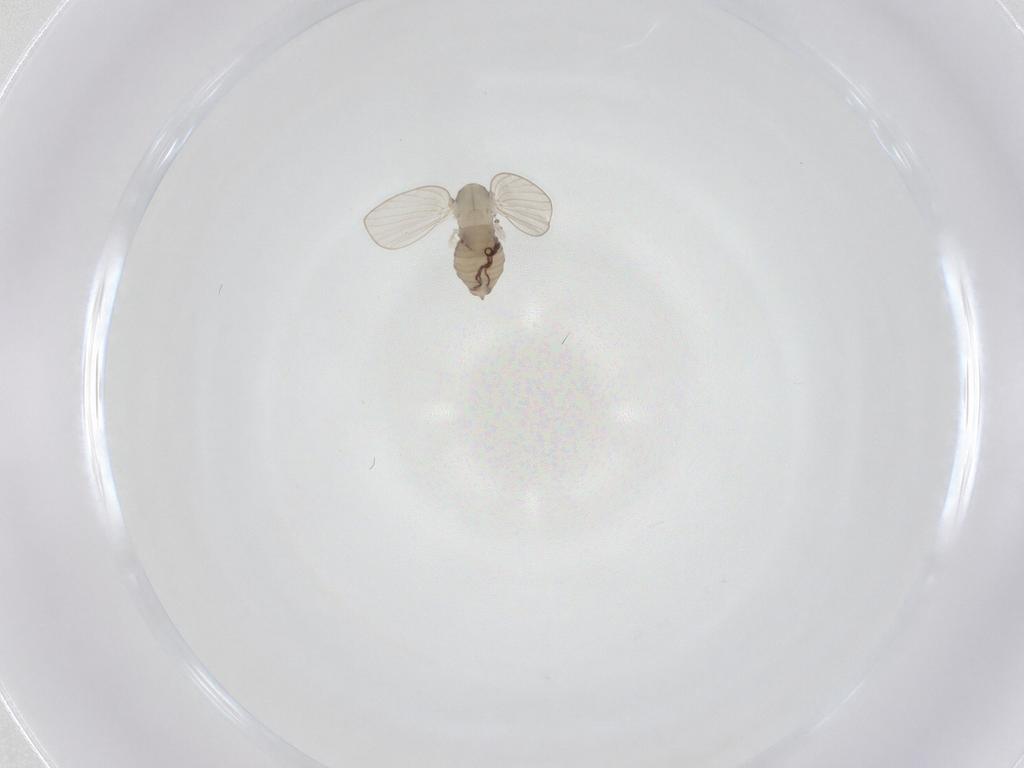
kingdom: Animalia
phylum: Arthropoda
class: Insecta
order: Diptera
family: Psychodidae
